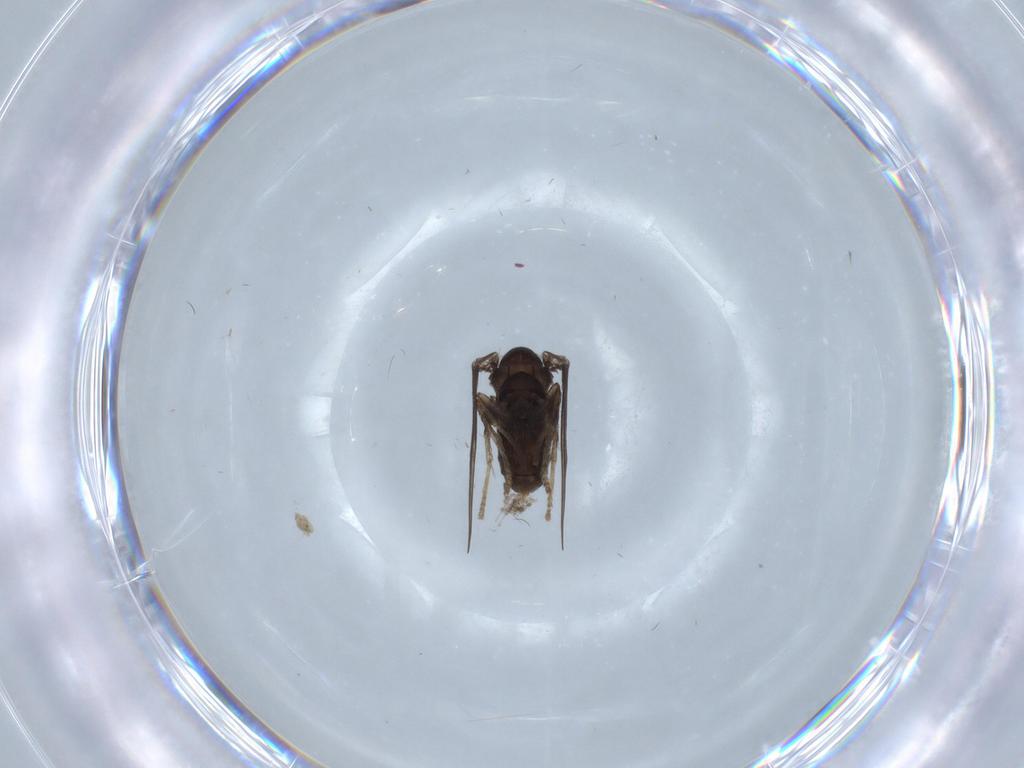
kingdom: Animalia
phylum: Arthropoda
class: Insecta
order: Diptera
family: Psychodidae
